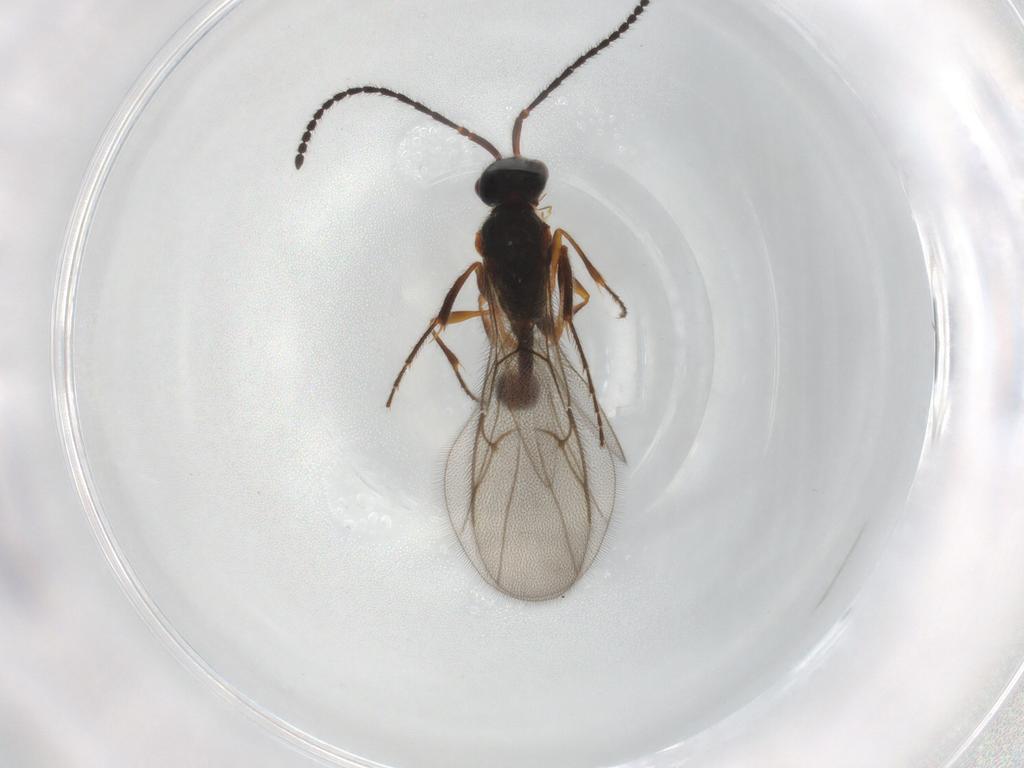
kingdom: Animalia
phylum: Arthropoda
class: Insecta
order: Hymenoptera
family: Diapriidae
